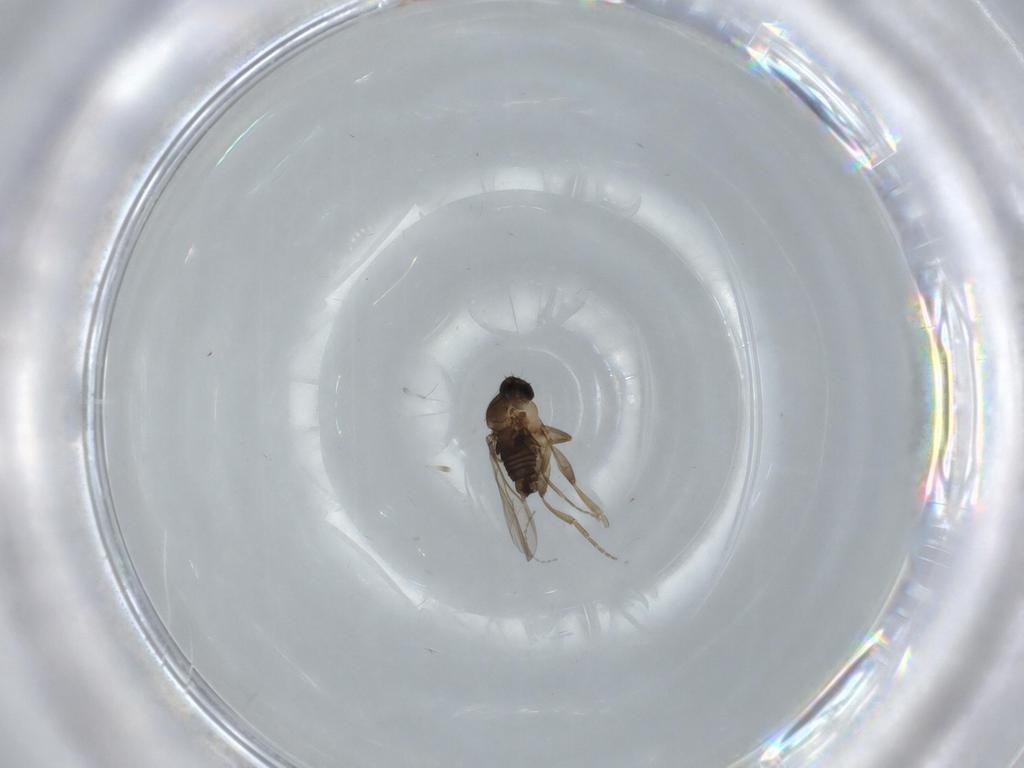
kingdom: Animalia
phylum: Arthropoda
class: Insecta
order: Diptera
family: Phoridae
